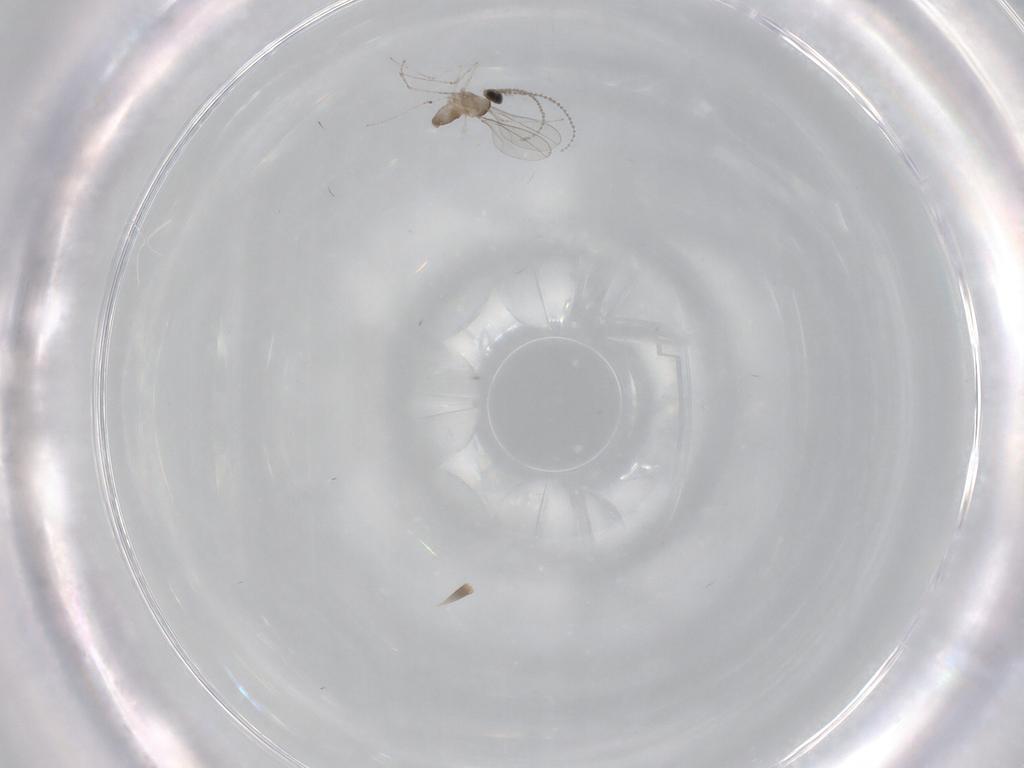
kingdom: Animalia
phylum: Arthropoda
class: Insecta
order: Diptera
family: Cecidomyiidae
